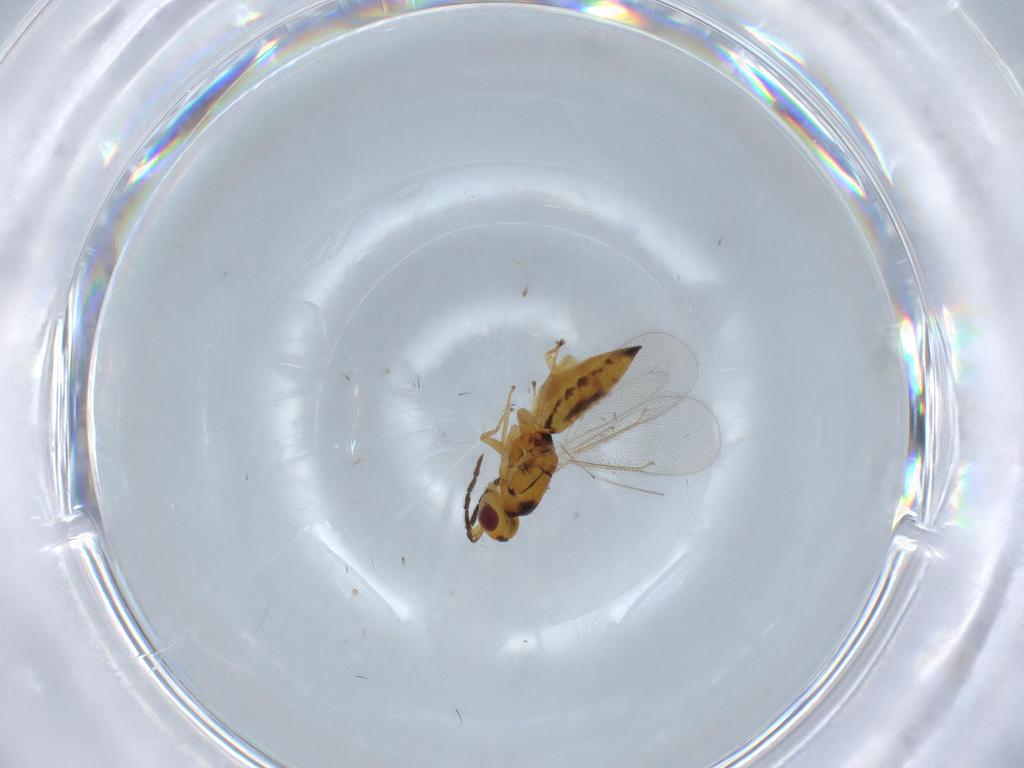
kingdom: Animalia
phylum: Arthropoda
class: Insecta
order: Hymenoptera
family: Eulophidae
